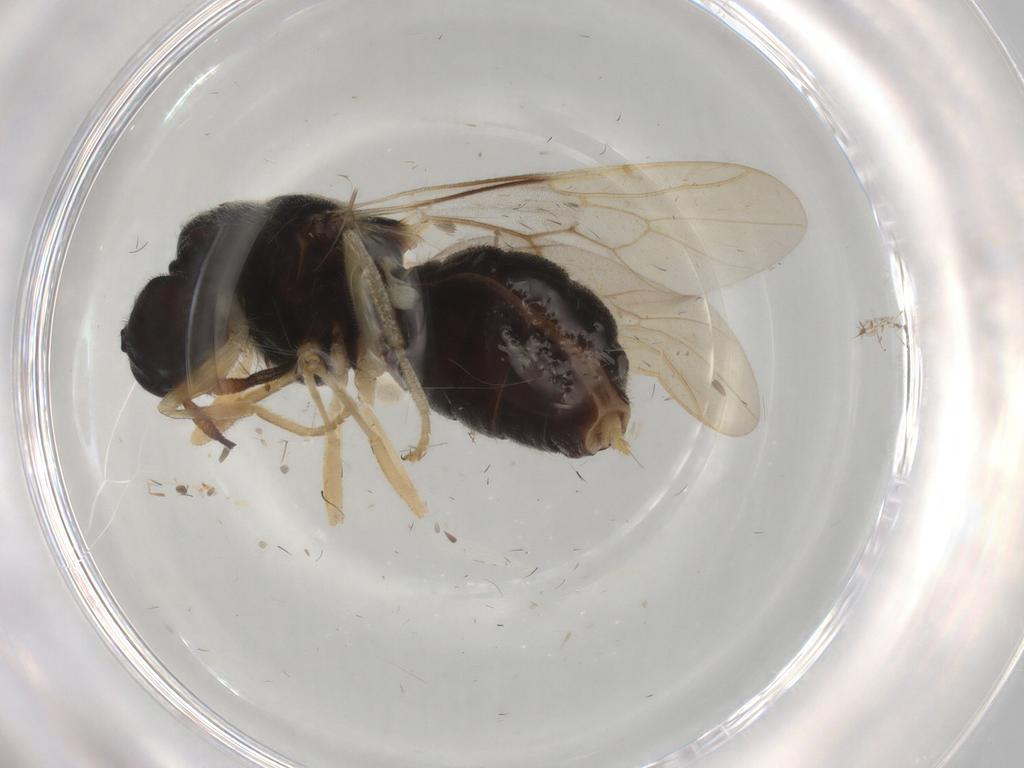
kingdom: Animalia
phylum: Arthropoda
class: Insecta
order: Diptera
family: Stratiomyidae
